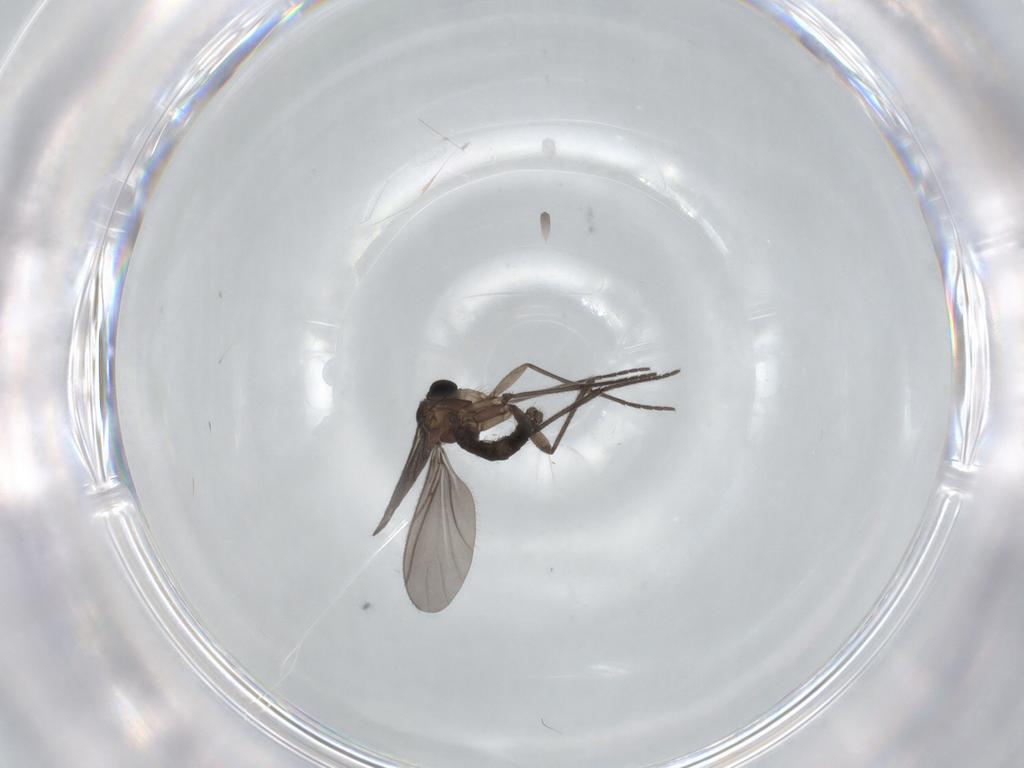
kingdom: Animalia
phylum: Arthropoda
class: Insecta
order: Diptera
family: Sciaridae
